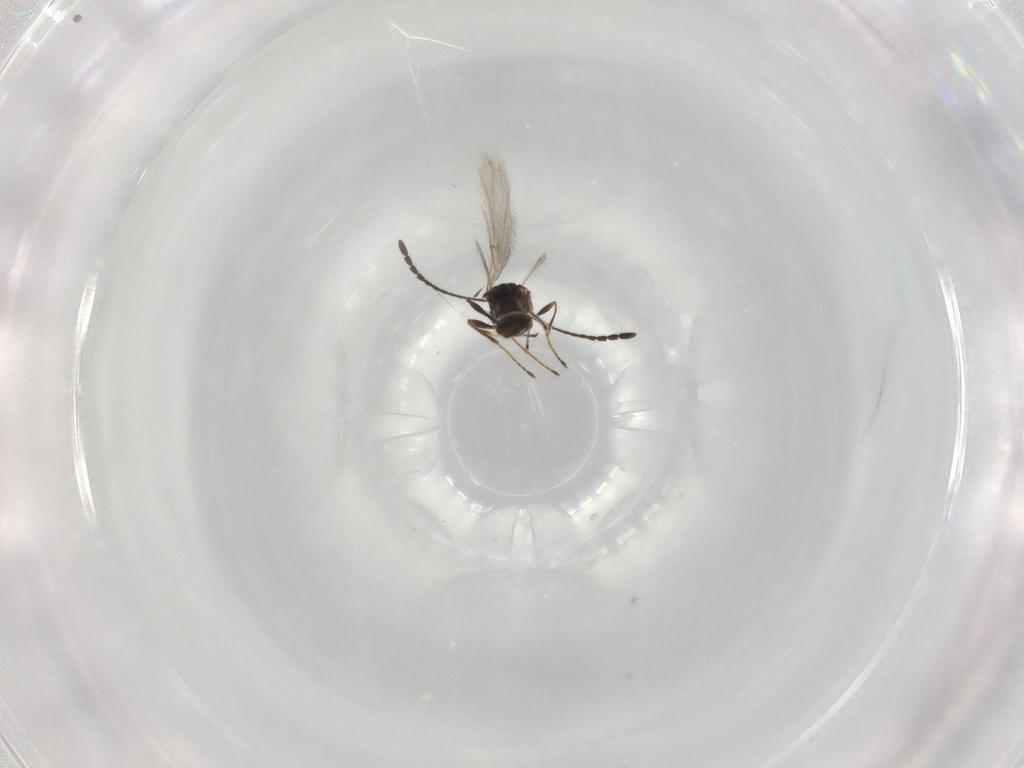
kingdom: Animalia
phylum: Arthropoda
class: Insecta
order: Hymenoptera
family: Diapriidae
